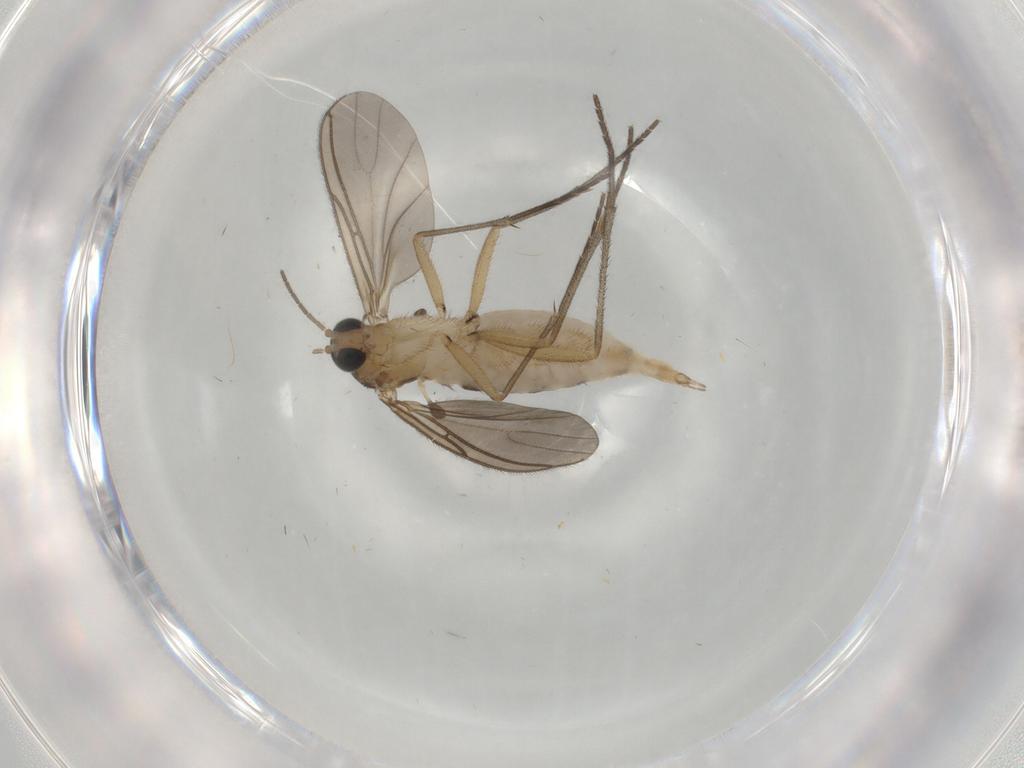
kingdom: Animalia
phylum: Arthropoda
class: Insecta
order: Diptera
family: Sciaridae
